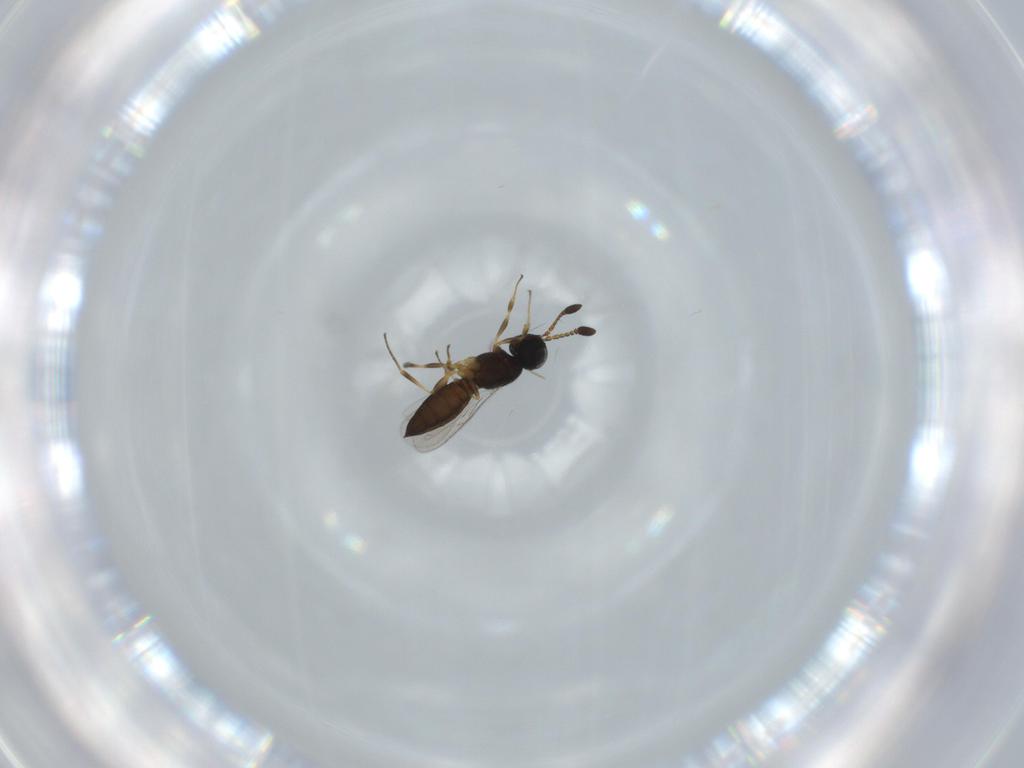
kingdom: Animalia
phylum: Arthropoda
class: Insecta
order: Hymenoptera
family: Scelionidae
